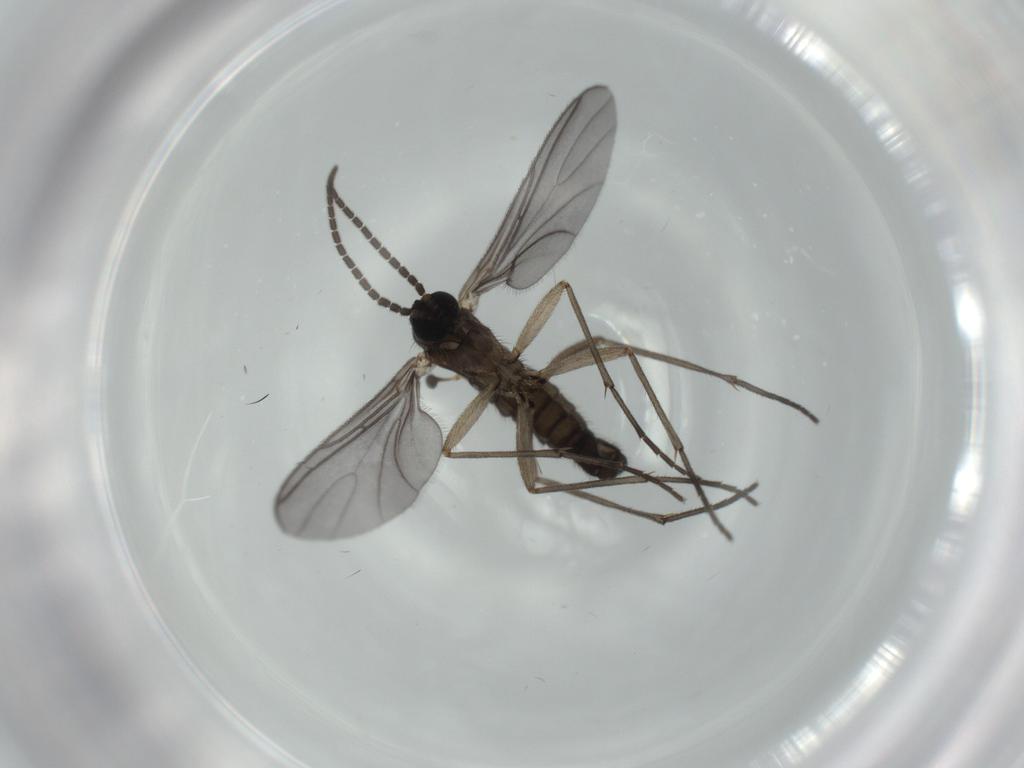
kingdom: Animalia
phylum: Arthropoda
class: Insecta
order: Diptera
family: Sciaridae
